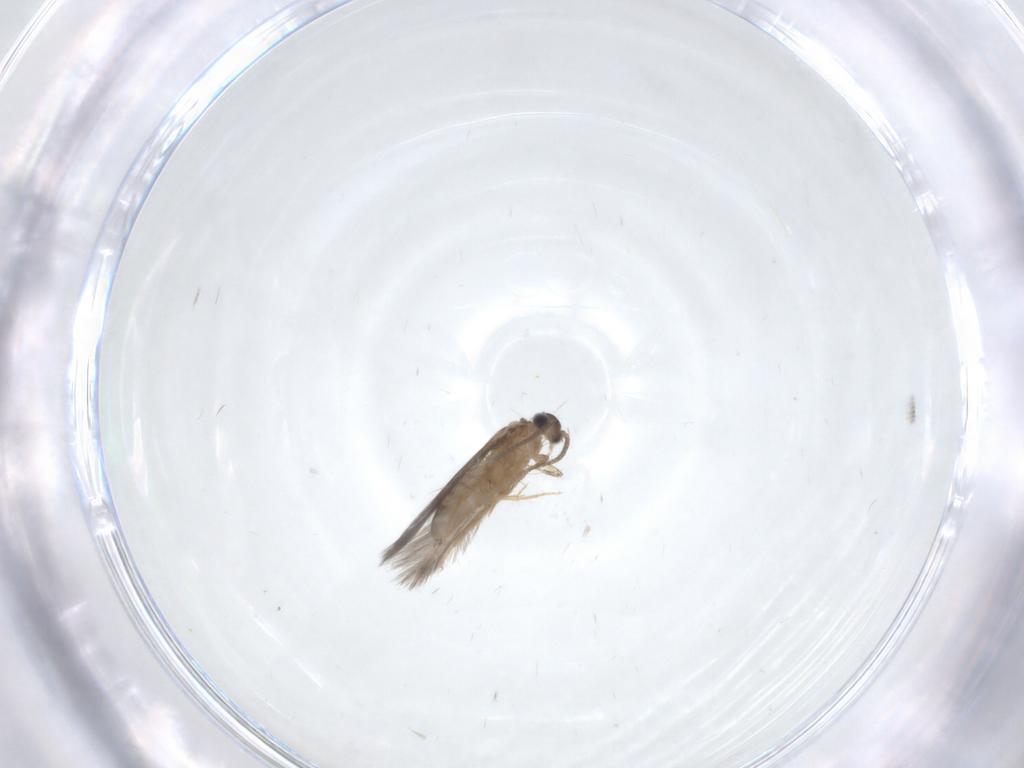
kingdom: Animalia
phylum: Arthropoda
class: Insecta
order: Trichoptera
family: Hydroptilidae
